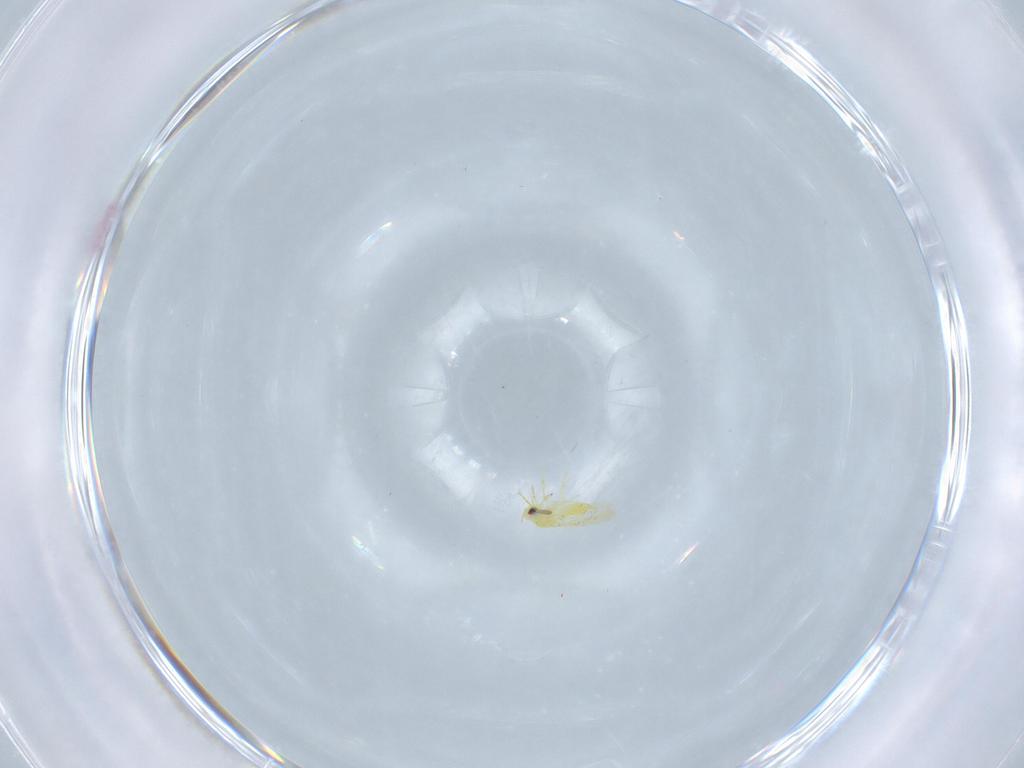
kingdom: Animalia
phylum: Arthropoda
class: Insecta
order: Hemiptera
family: Aleyrodidae
